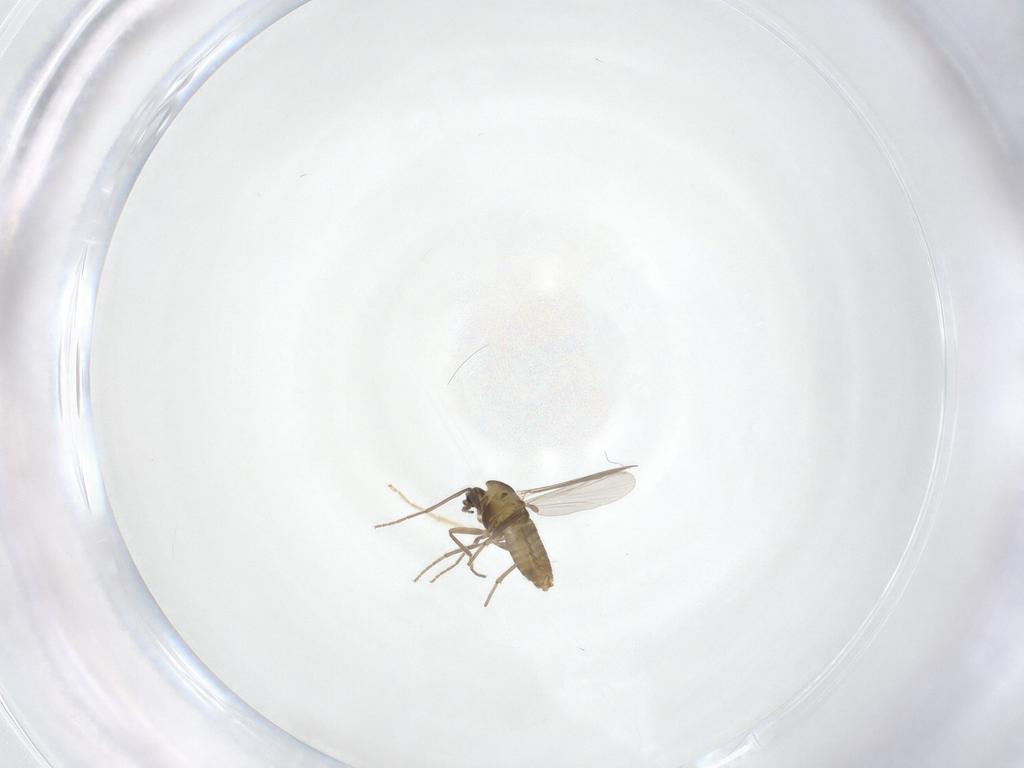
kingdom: Animalia
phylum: Arthropoda
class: Insecta
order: Diptera
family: Chironomidae
